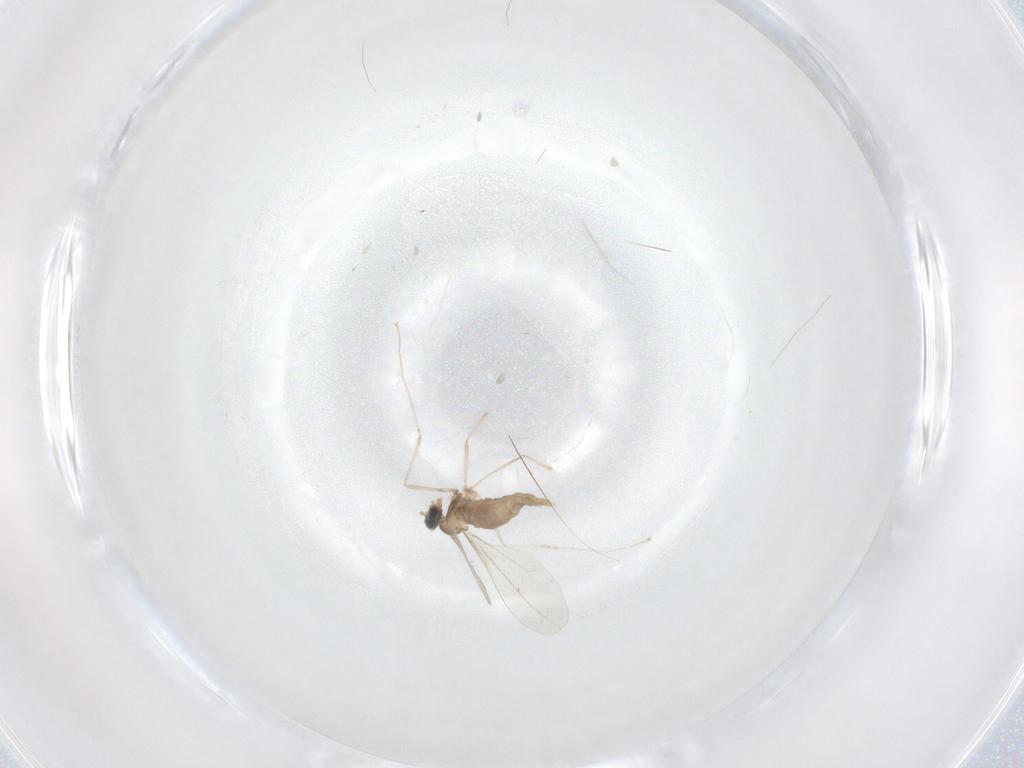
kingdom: Animalia
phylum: Arthropoda
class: Insecta
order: Diptera
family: Cecidomyiidae
